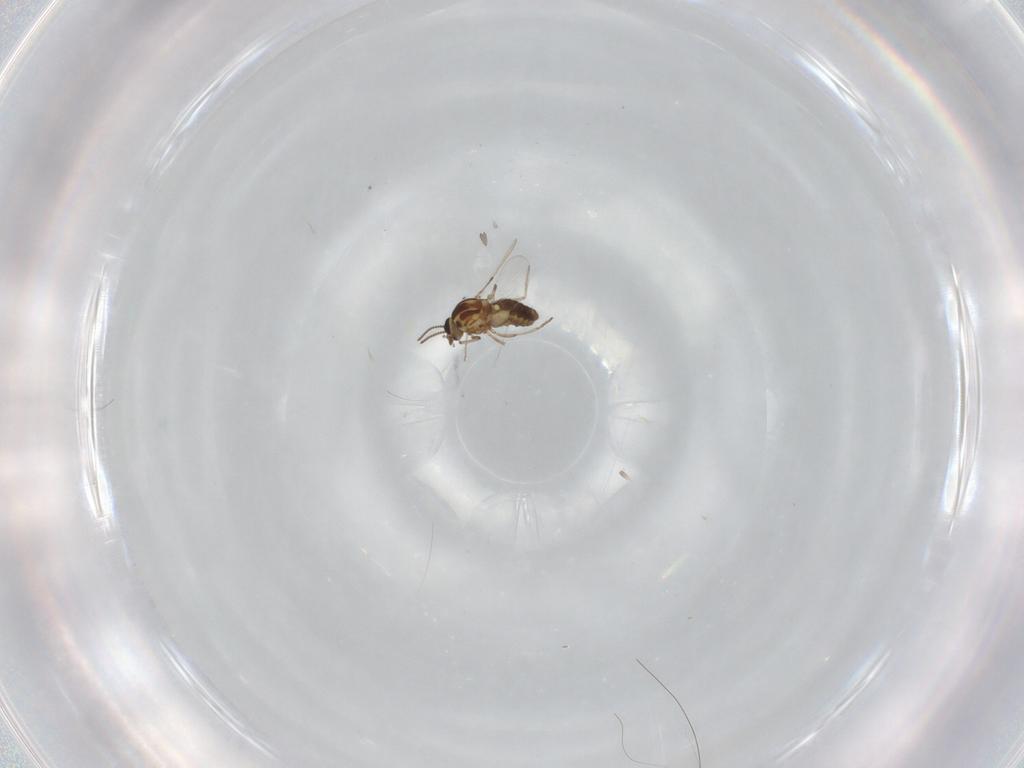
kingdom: Animalia
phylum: Arthropoda
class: Insecta
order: Diptera
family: Ceratopogonidae
